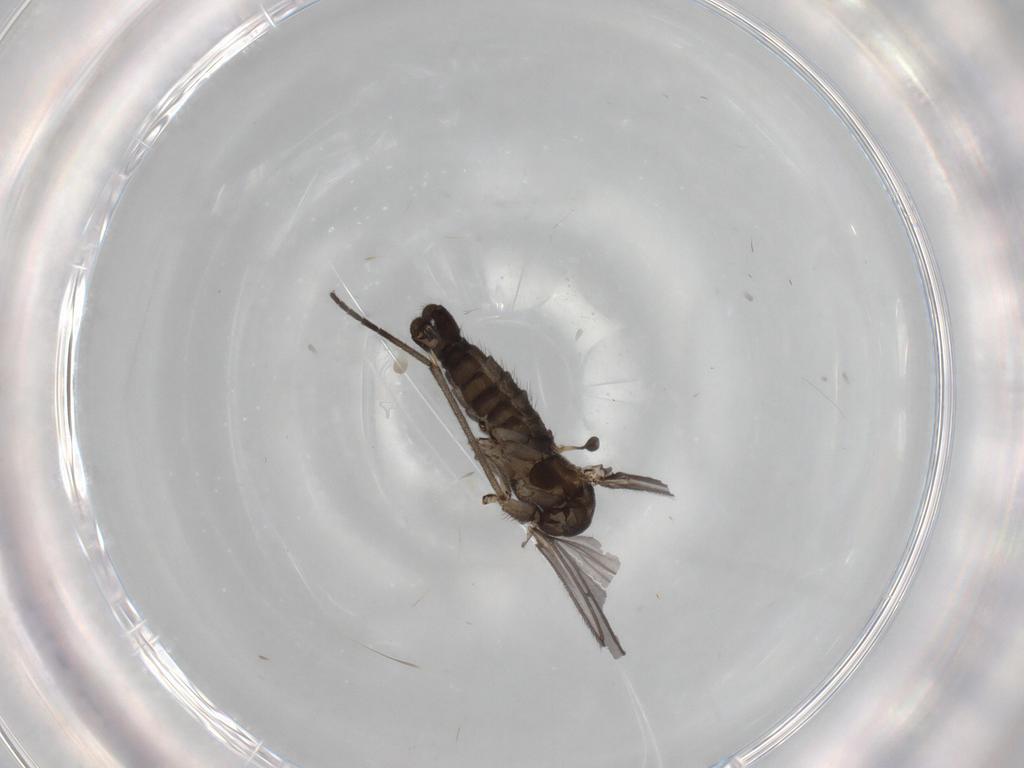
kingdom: Animalia
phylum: Arthropoda
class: Insecta
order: Diptera
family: Sciaridae
